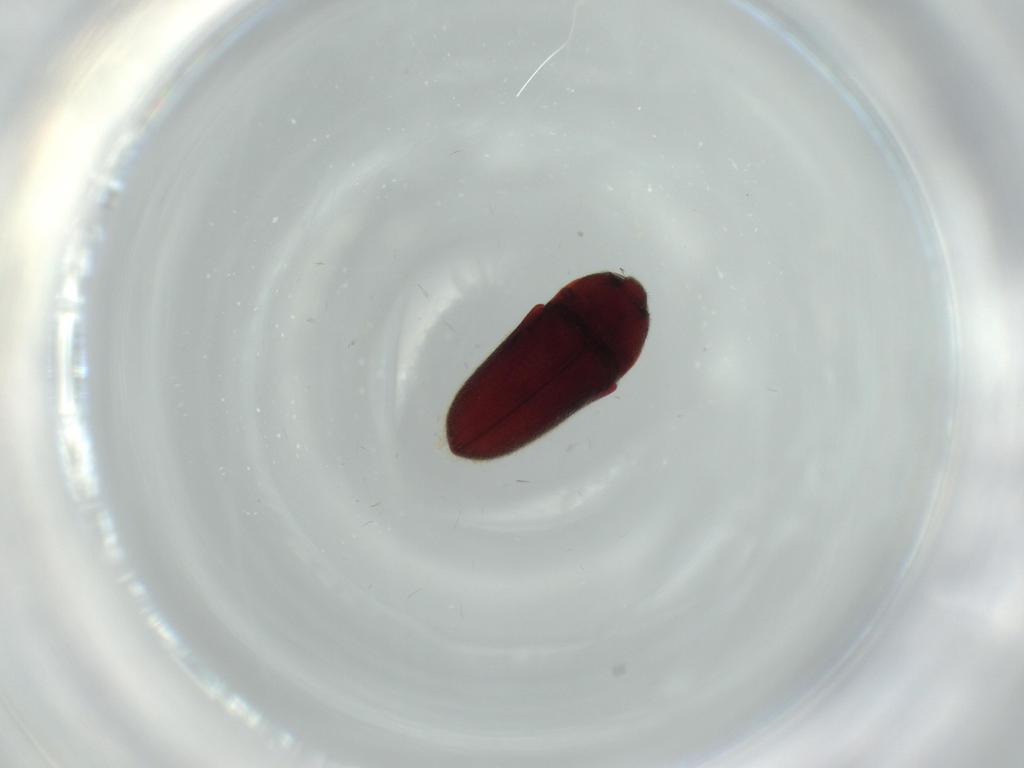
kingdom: Animalia
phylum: Arthropoda
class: Insecta
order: Coleoptera
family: Throscidae
